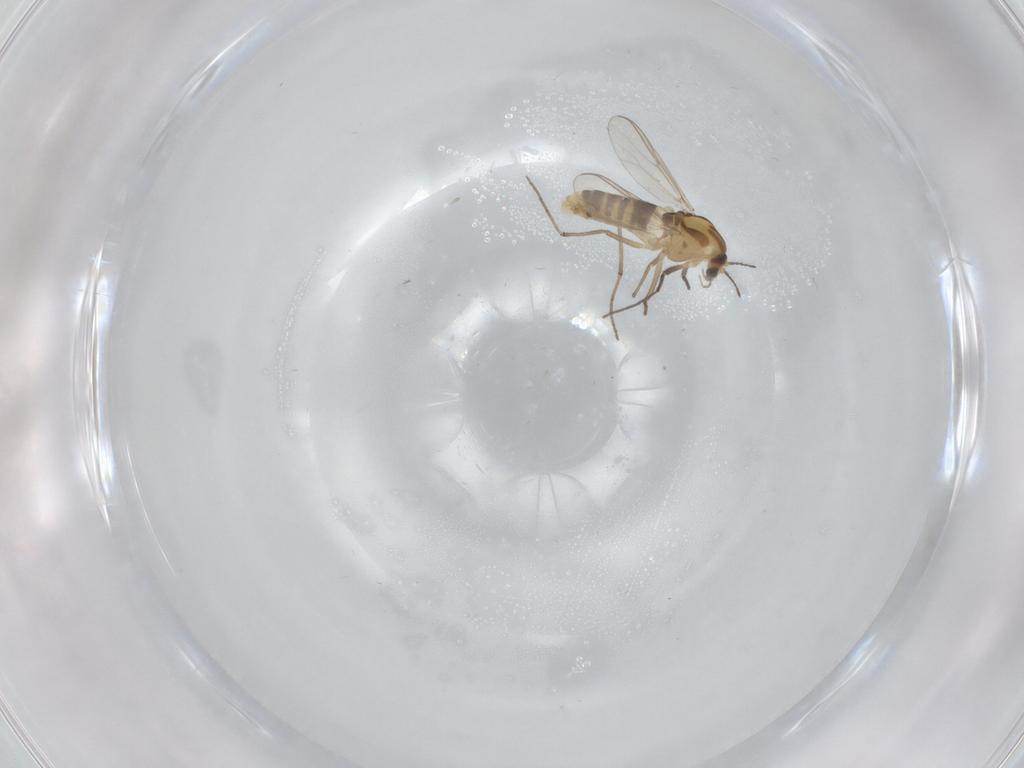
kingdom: Animalia
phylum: Arthropoda
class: Insecta
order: Diptera
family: Chironomidae
